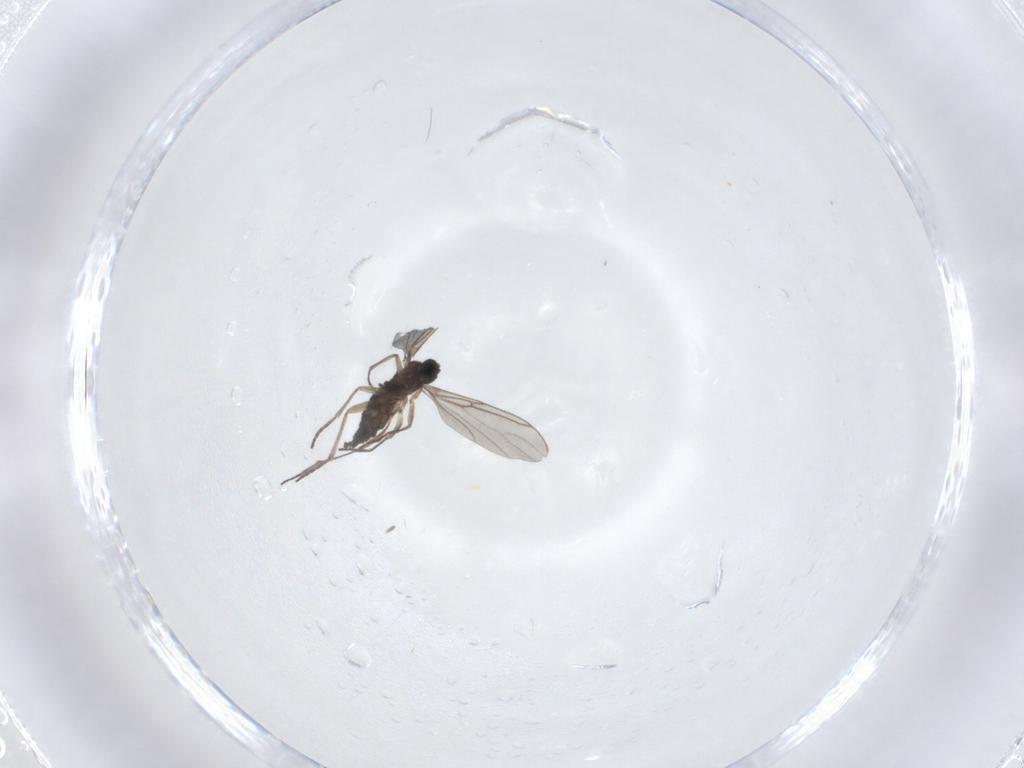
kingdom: Animalia
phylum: Arthropoda
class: Insecta
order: Diptera
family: Sciaridae
